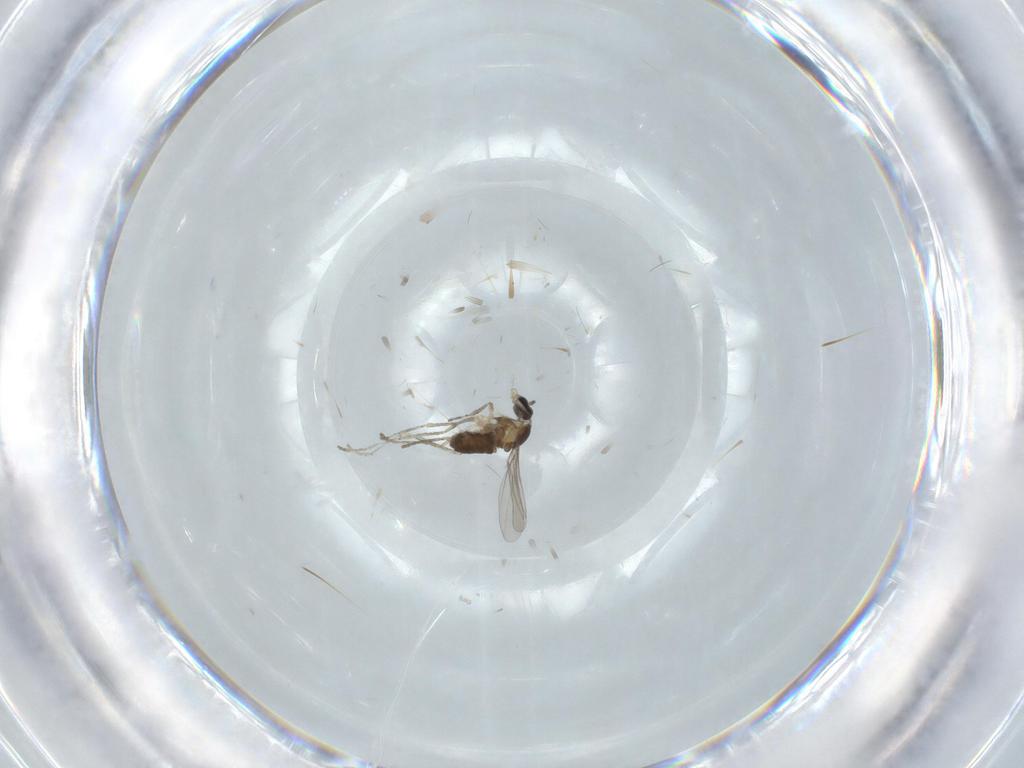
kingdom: Animalia
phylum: Arthropoda
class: Insecta
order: Diptera
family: Cecidomyiidae
